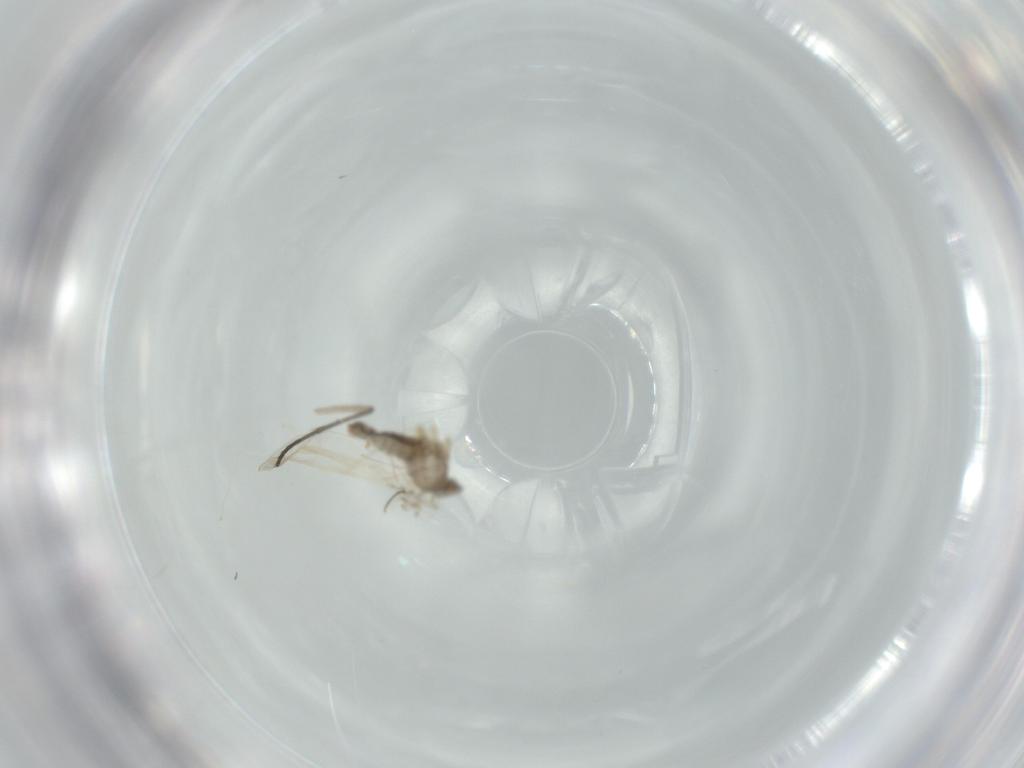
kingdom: Animalia
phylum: Arthropoda
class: Insecta
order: Diptera
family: Cecidomyiidae
